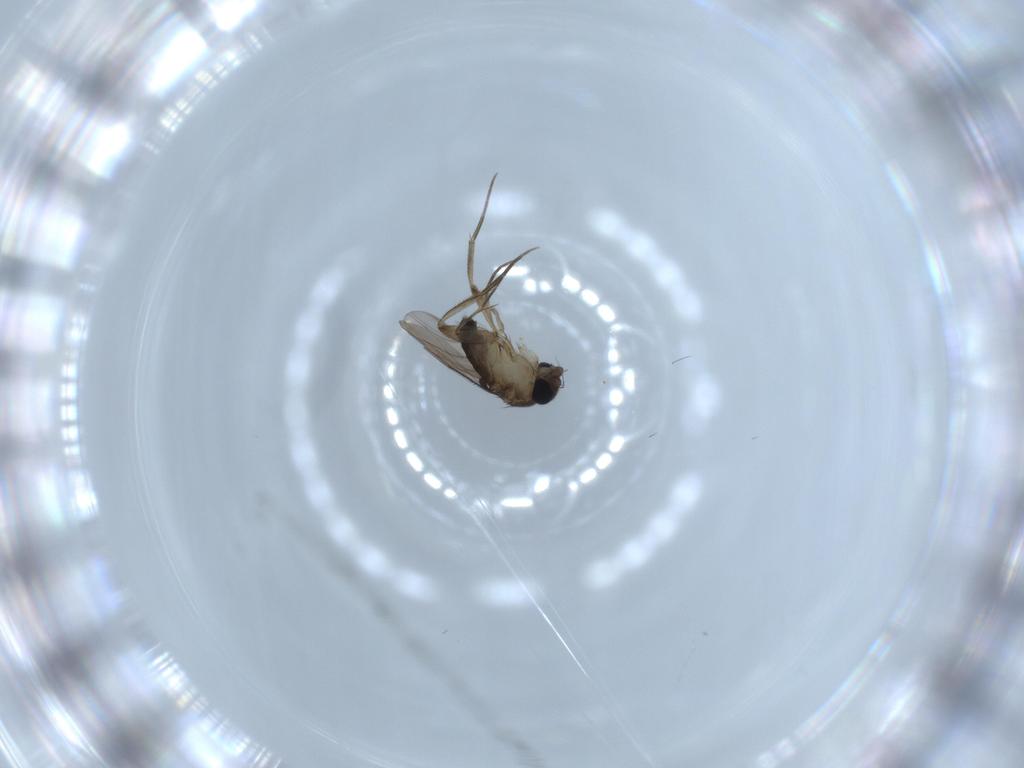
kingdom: Animalia
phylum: Arthropoda
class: Insecta
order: Diptera
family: Phoridae
